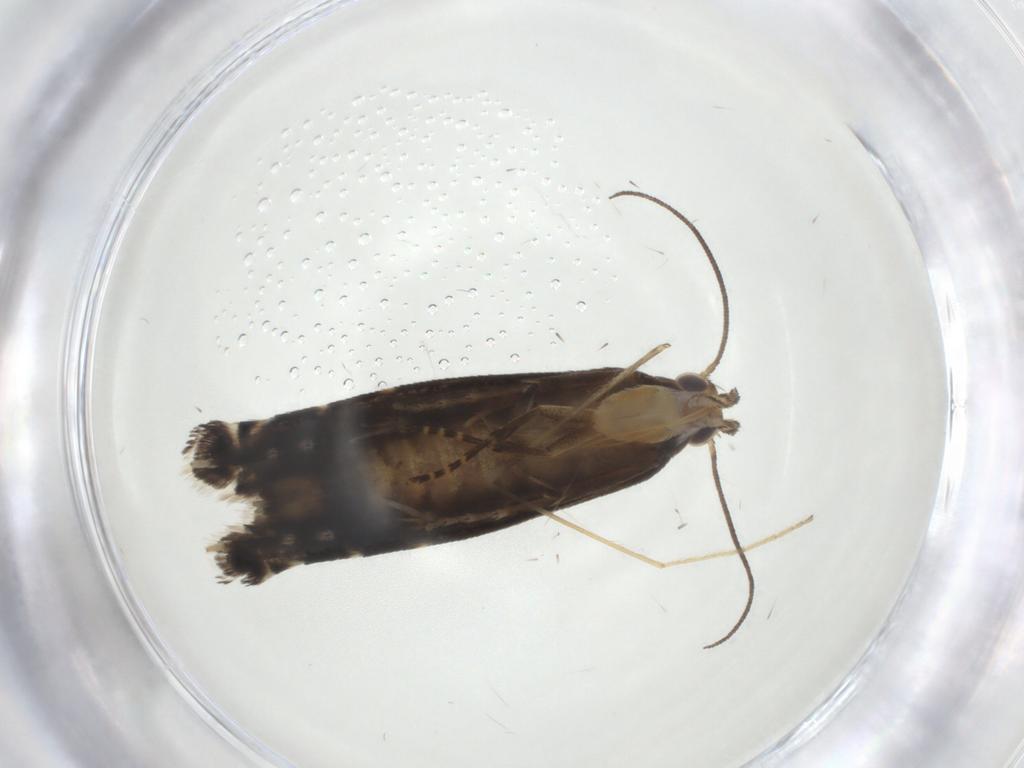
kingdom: Animalia
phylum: Arthropoda
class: Insecta
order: Lepidoptera
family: Glyphipterigidae
